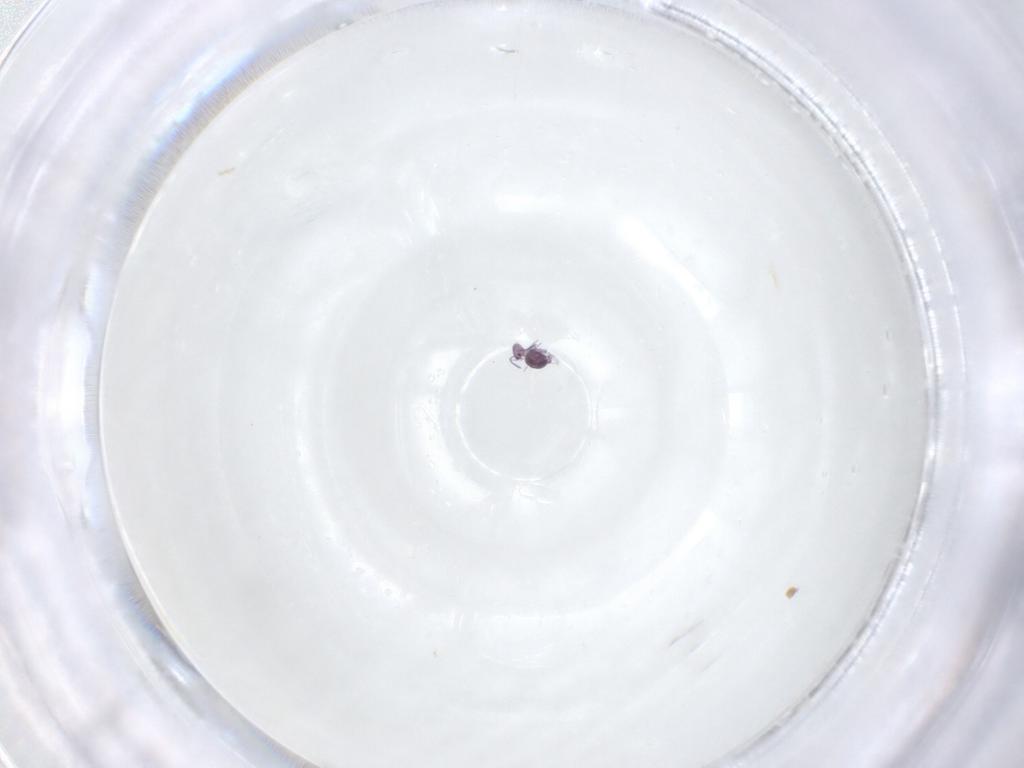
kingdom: Animalia
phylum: Arthropoda
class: Collembola
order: Symphypleona
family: Sminthurididae
